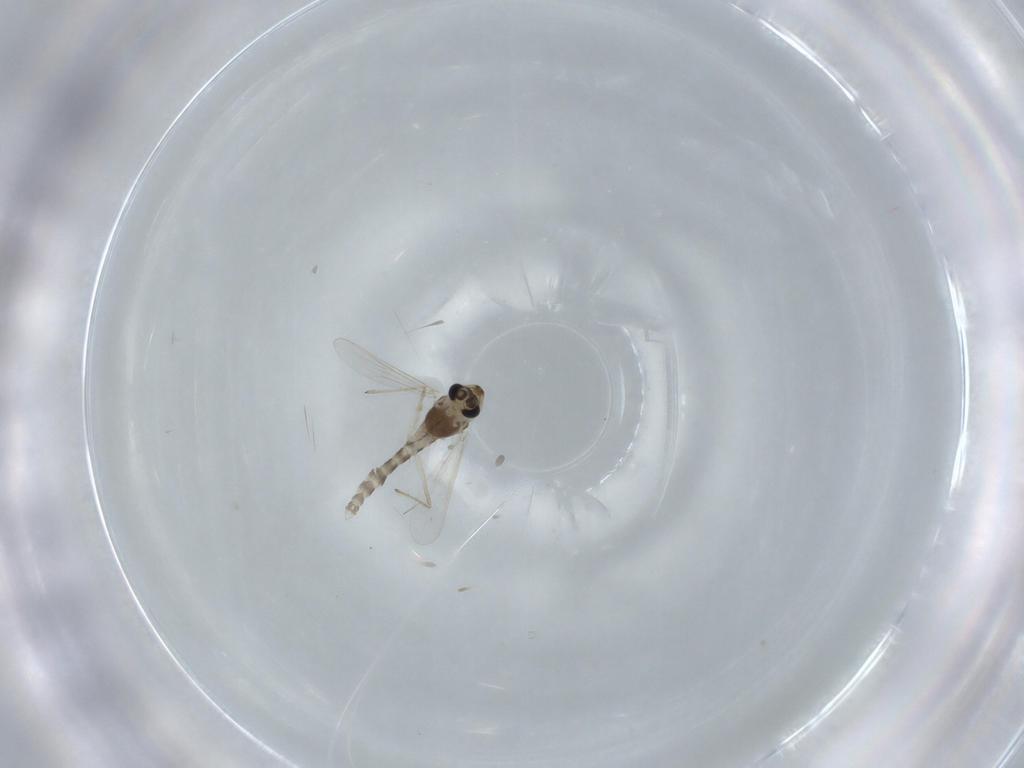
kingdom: Animalia
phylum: Arthropoda
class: Insecta
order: Diptera
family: Chironomidae
